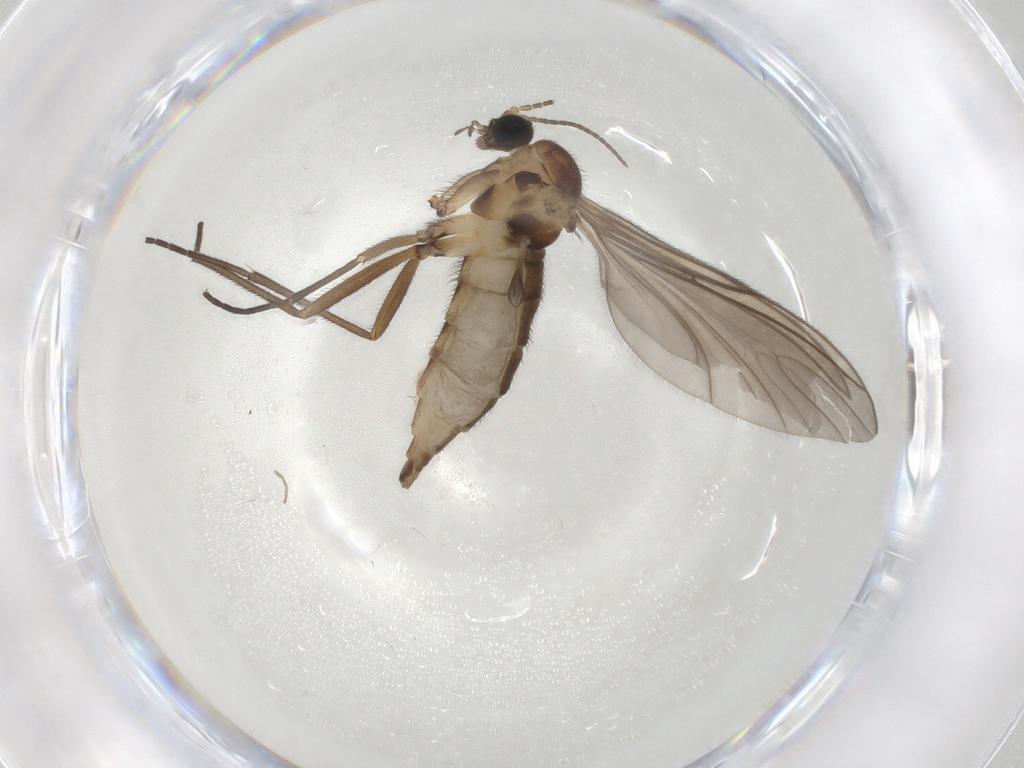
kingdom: Animalia
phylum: Arthropoda
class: Insecta
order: Diptera
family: Sciaridae
